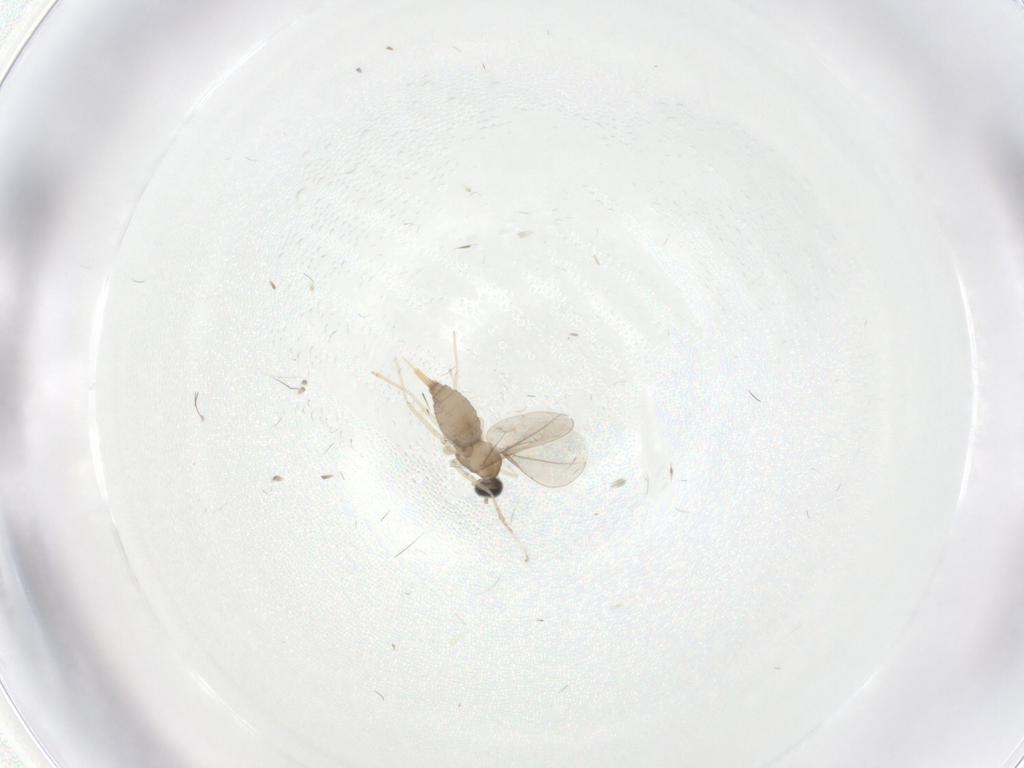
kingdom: Animalia
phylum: Arthropoda
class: Insecta
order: Diptera
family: Cecidomyiidae
